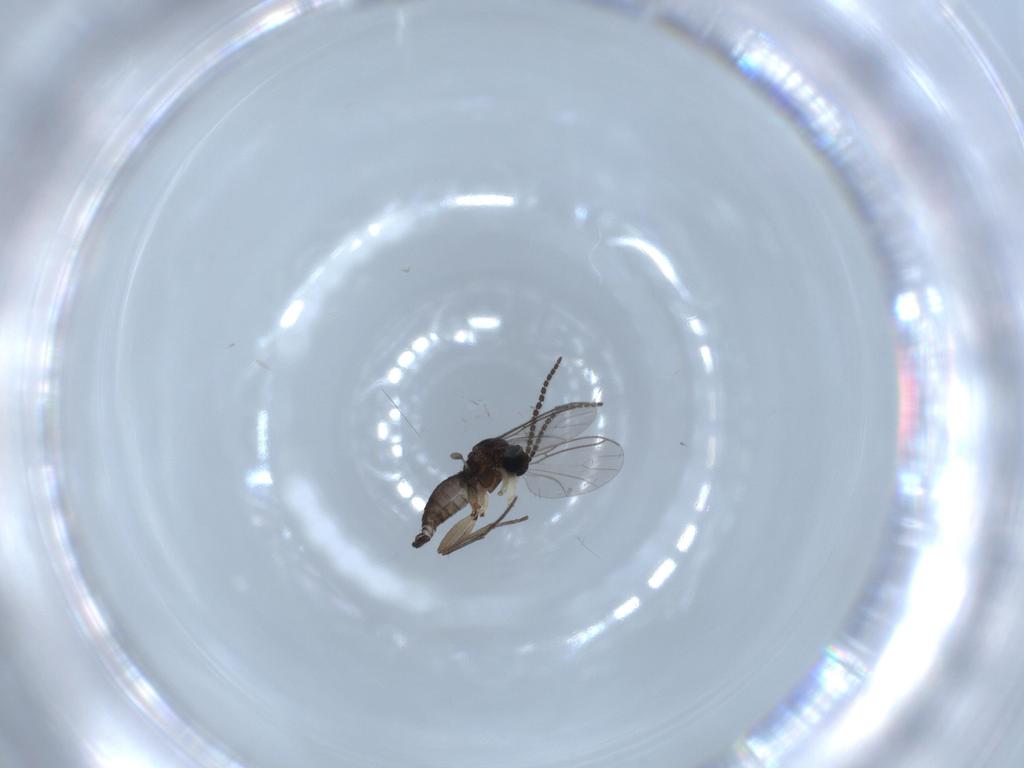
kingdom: Animalia
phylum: Arthropoda
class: Insecta
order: Diptera
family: Sciaridae
